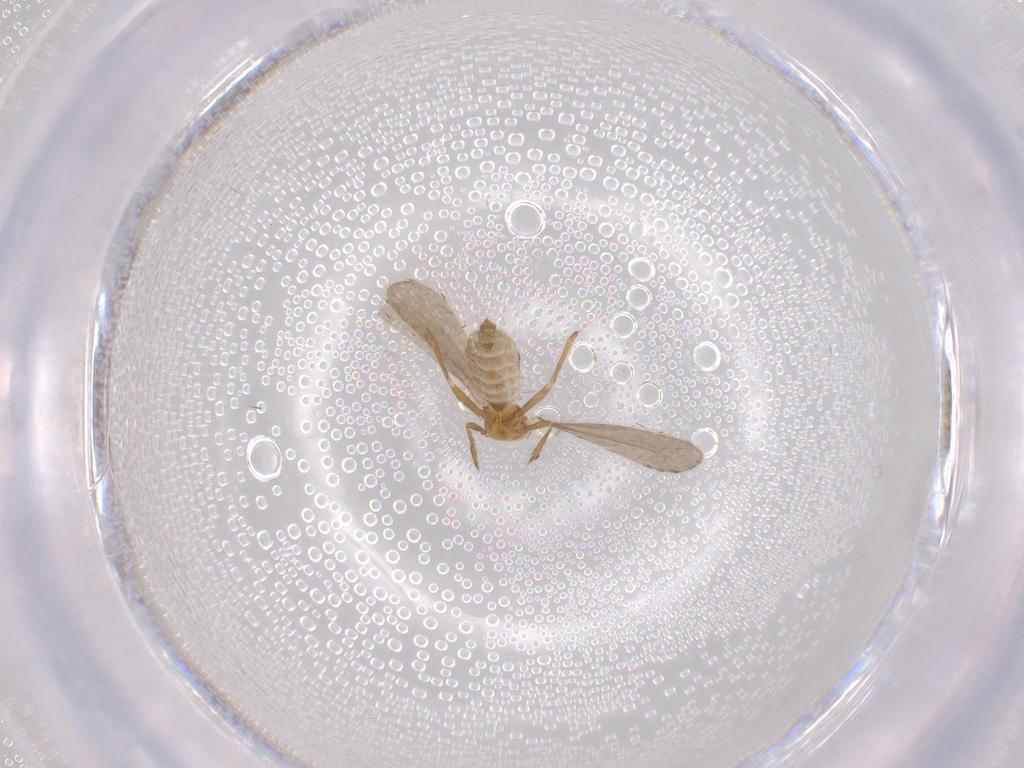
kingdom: Animalia
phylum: Arthropoda
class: Insecta
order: Hemiptera
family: Enicocephalidae
